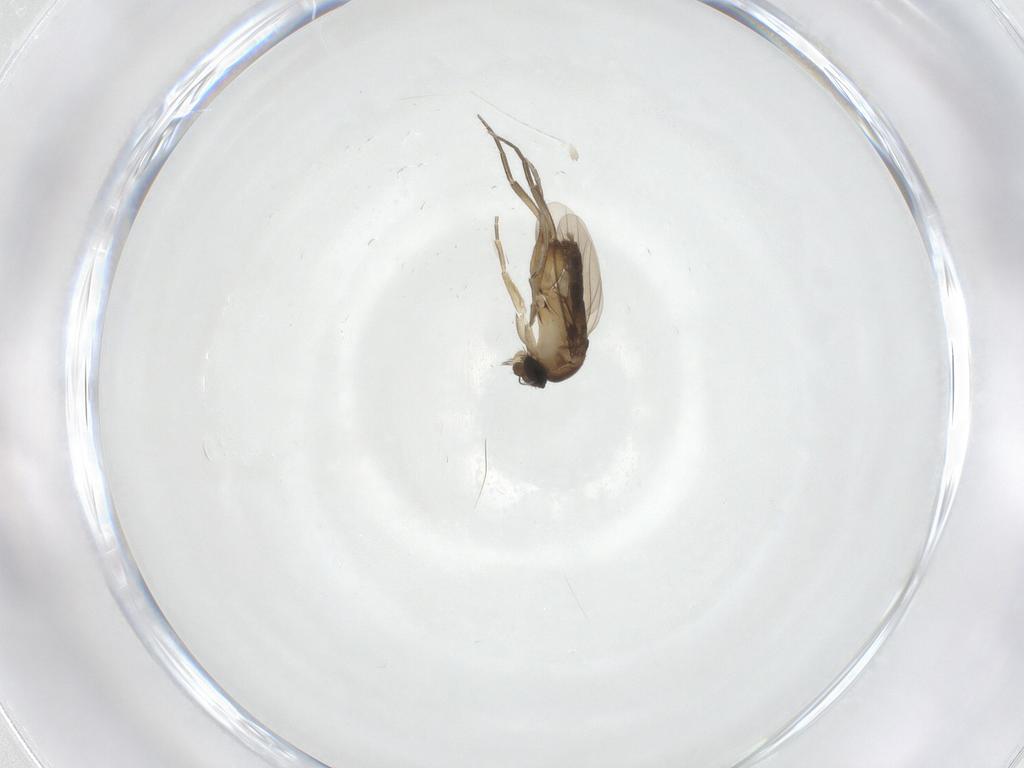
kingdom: Animalia
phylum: Arthropoda
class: Insecta
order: Diptera
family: Phoridae
